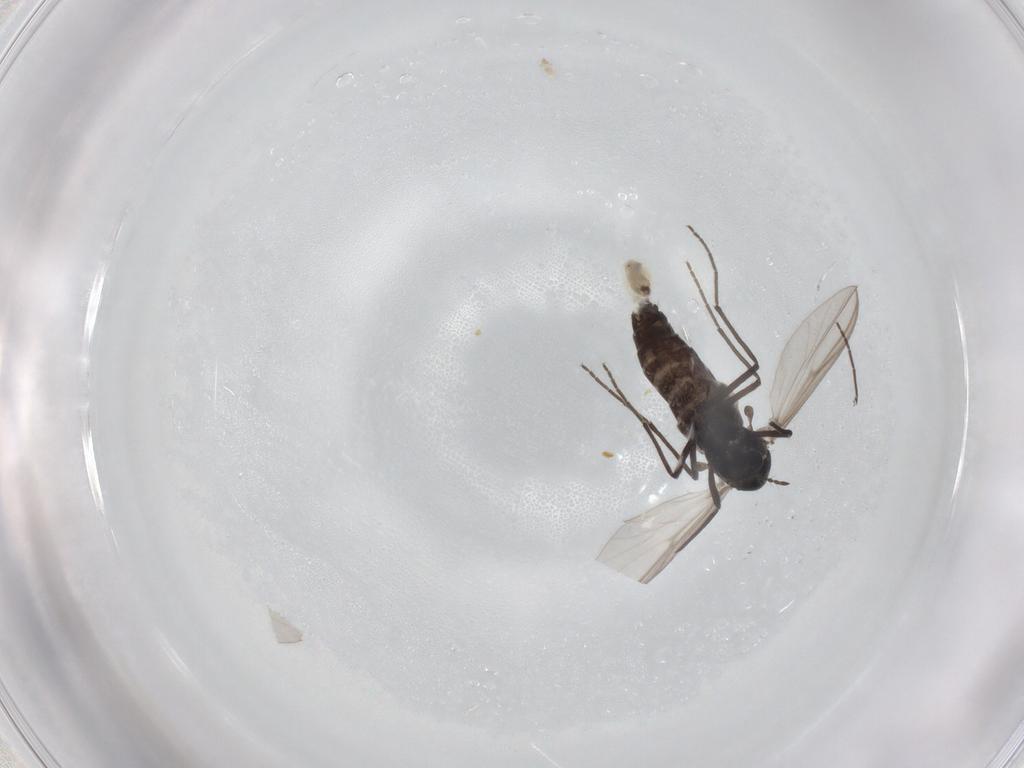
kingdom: Animalia
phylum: Arthropoda
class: Insecta
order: Diptera
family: Chironomidae
